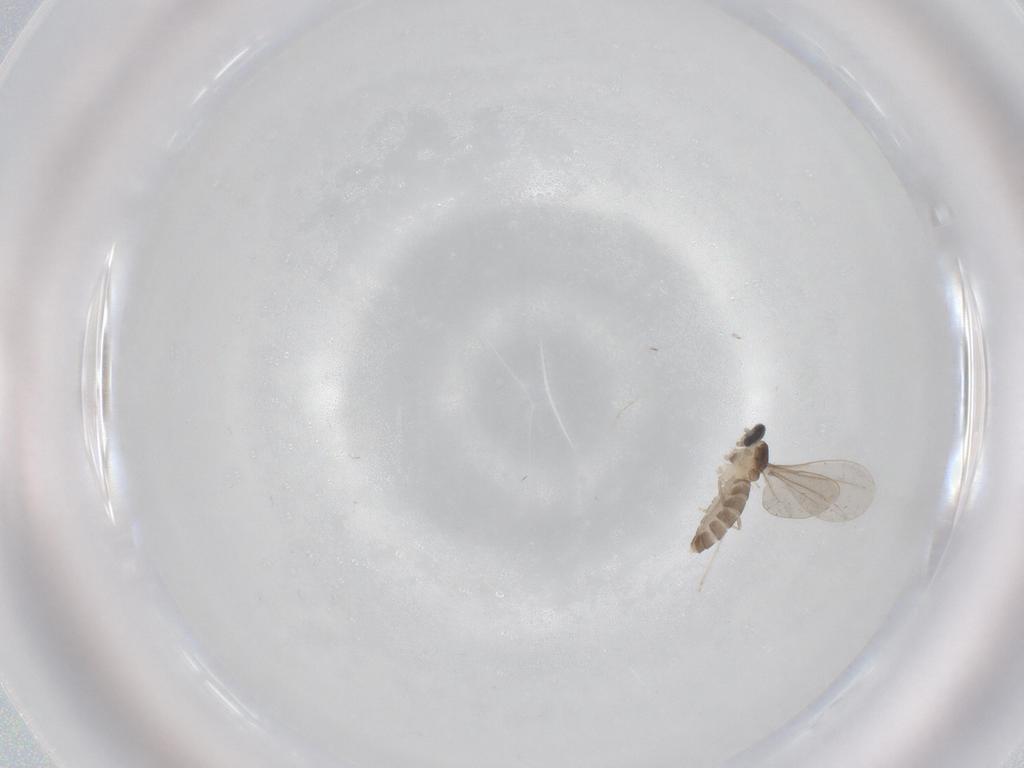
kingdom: Animalia
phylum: Arthropoda
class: Insecta
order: Diptera
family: Cecidomyiidae
